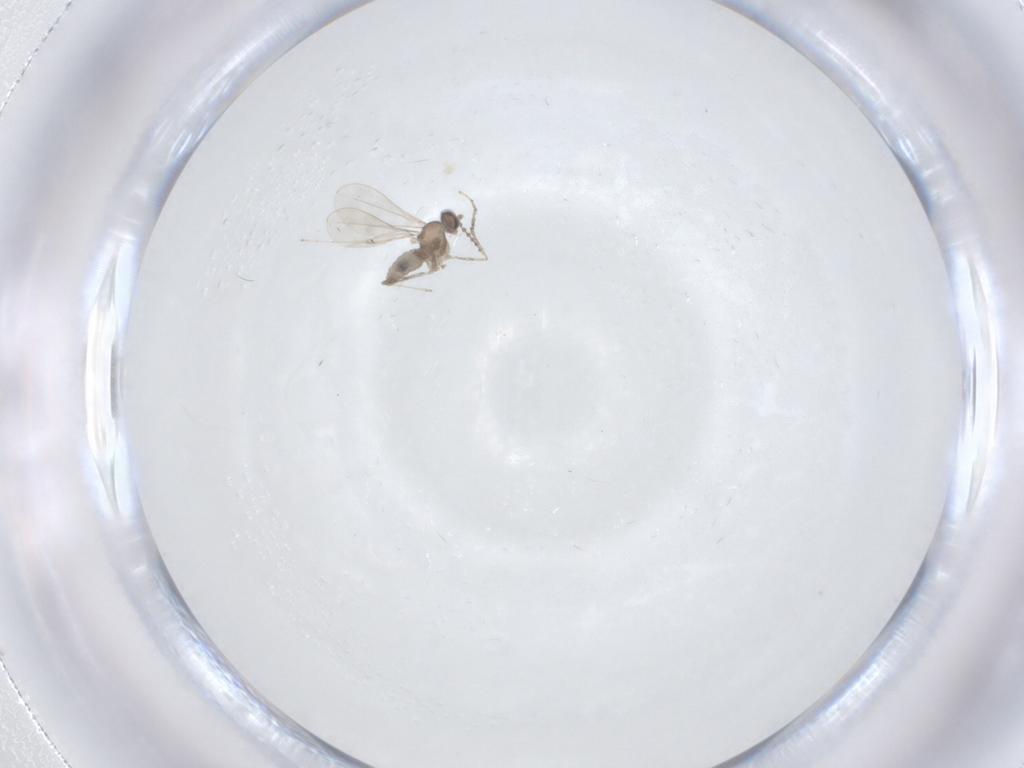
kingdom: Animalia
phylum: Arthropoda
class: Insecta
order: Diptera
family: Cecidomyiidae
